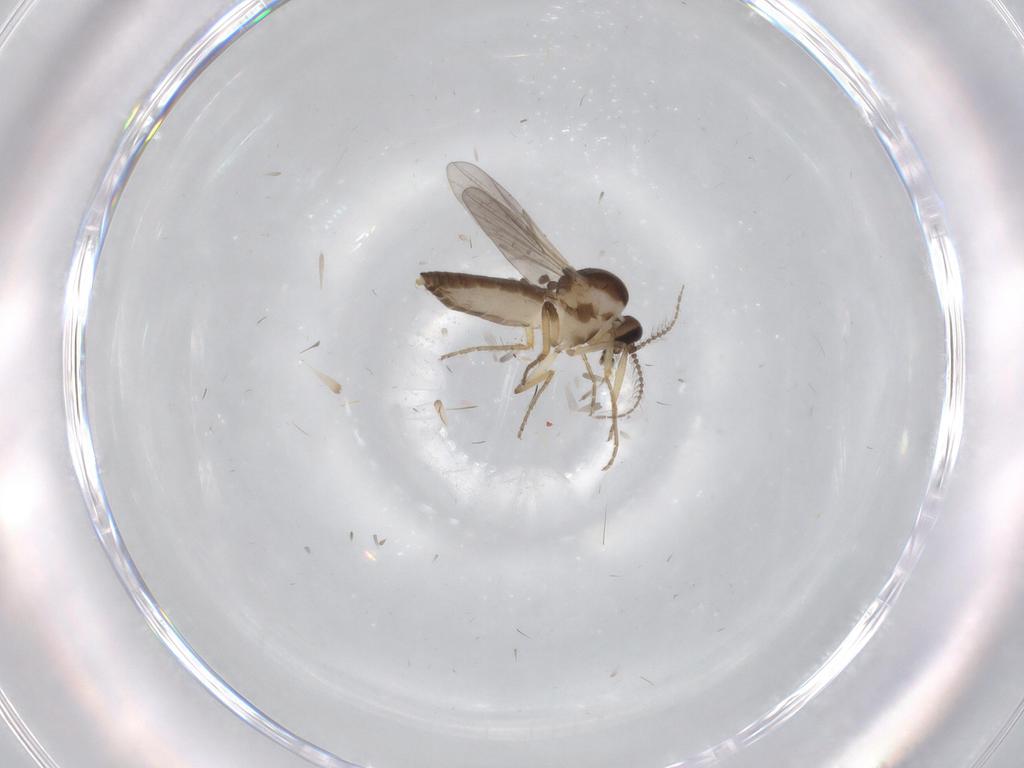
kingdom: Animalia
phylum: Arthropoda
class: Insecta
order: Diptera
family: Ceratopogonidae
